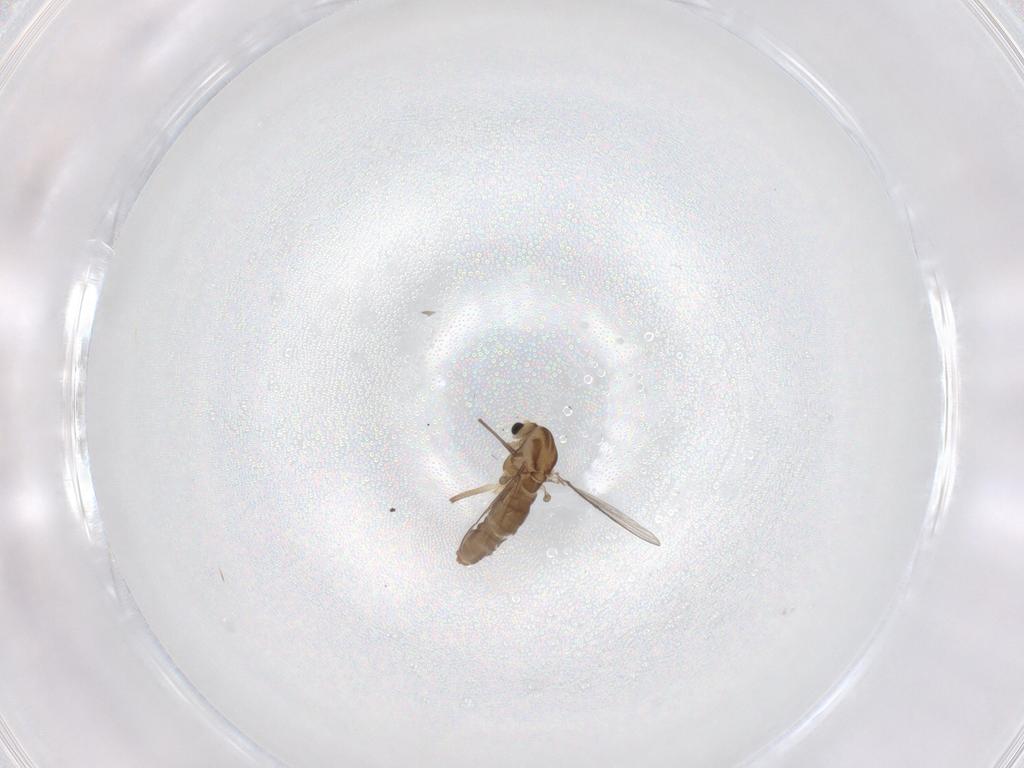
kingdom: Animalia
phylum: Arthropoda
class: Insecta
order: Diptera
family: Chironomidae
